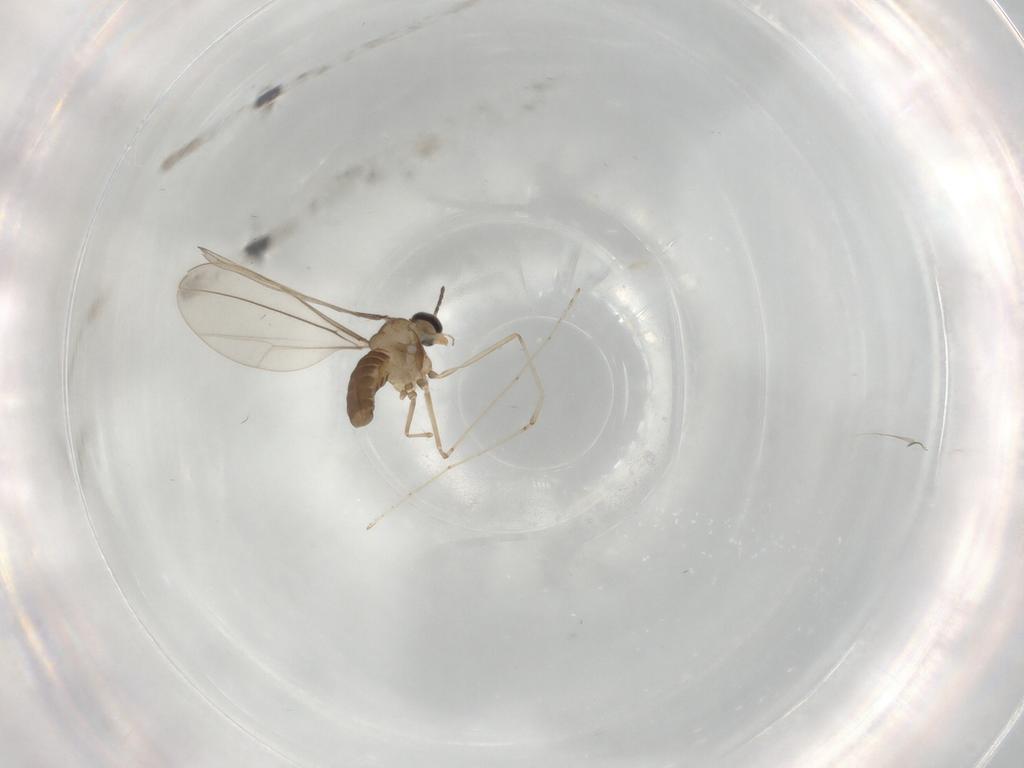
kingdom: Animalia
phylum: Arthropoda
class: Insecta
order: Diptera
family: Cecidomyiidae
